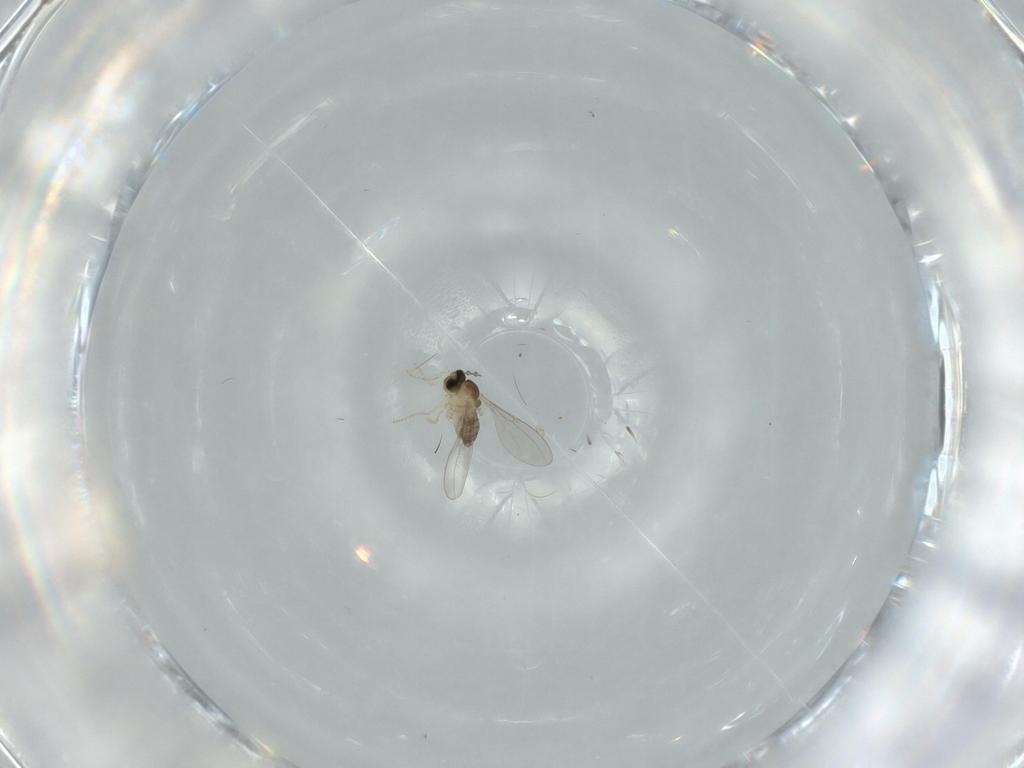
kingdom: Animalia
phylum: Arthropoda
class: Insecta
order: Diptera
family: Cecidomyiidae
